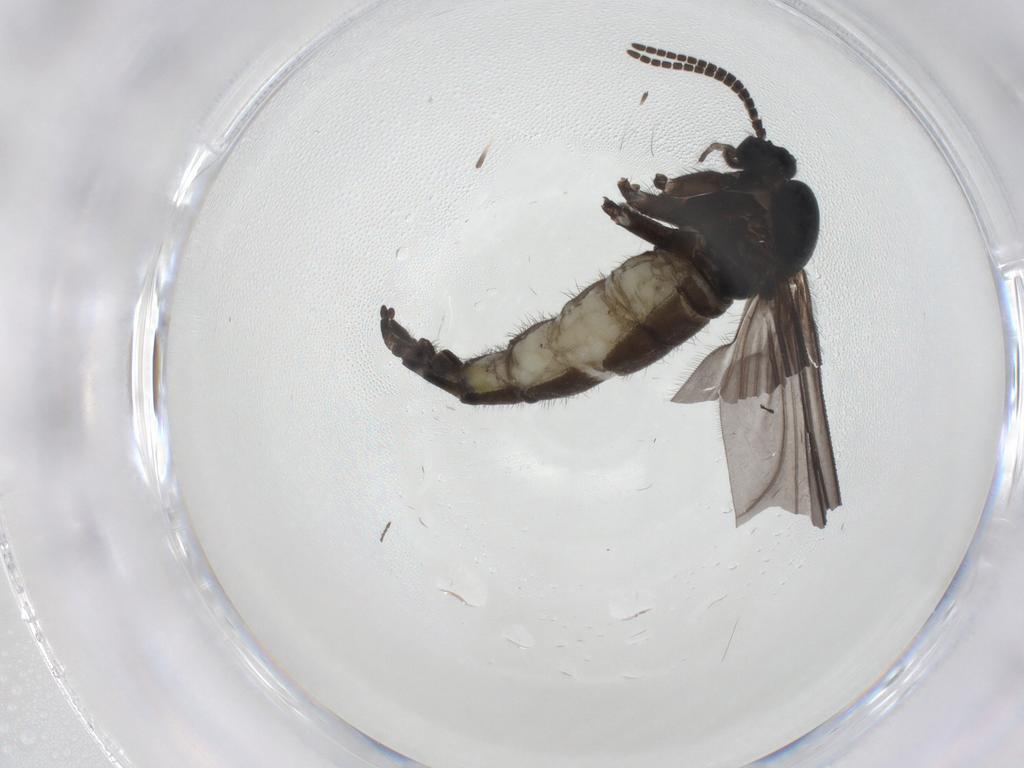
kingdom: Animalia
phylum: Arthropoda
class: Insecta
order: Diptera
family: Sciaridae
